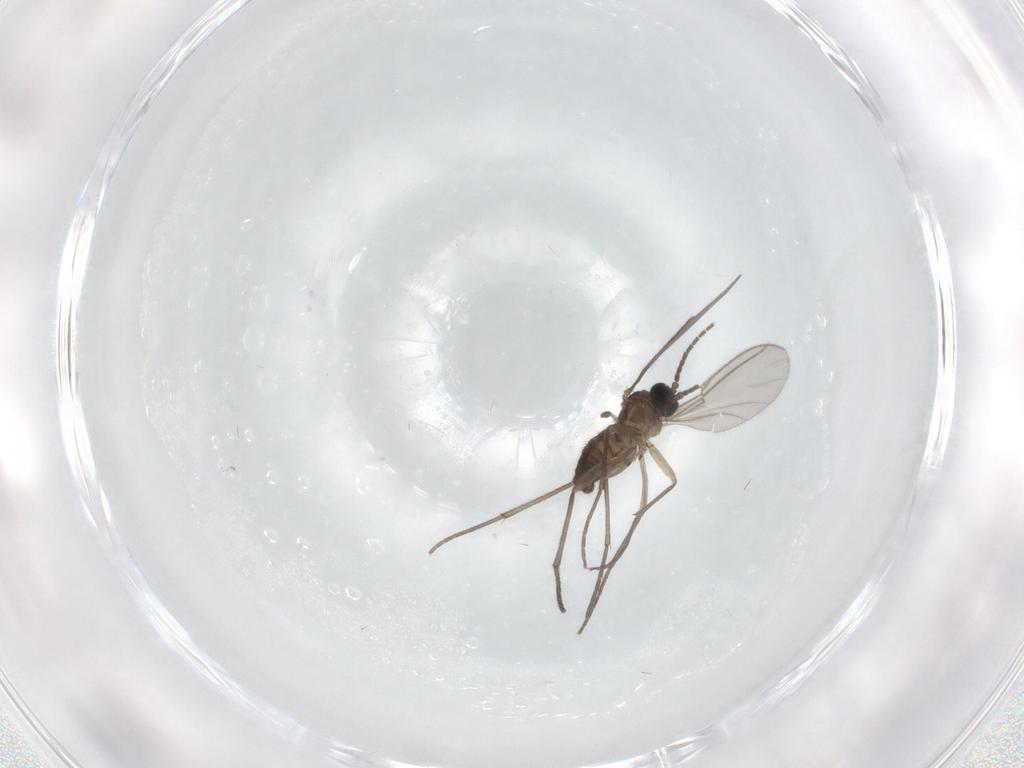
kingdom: Animalia
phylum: Arthropoda
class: Insecta
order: Diptera
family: Sciaridae
